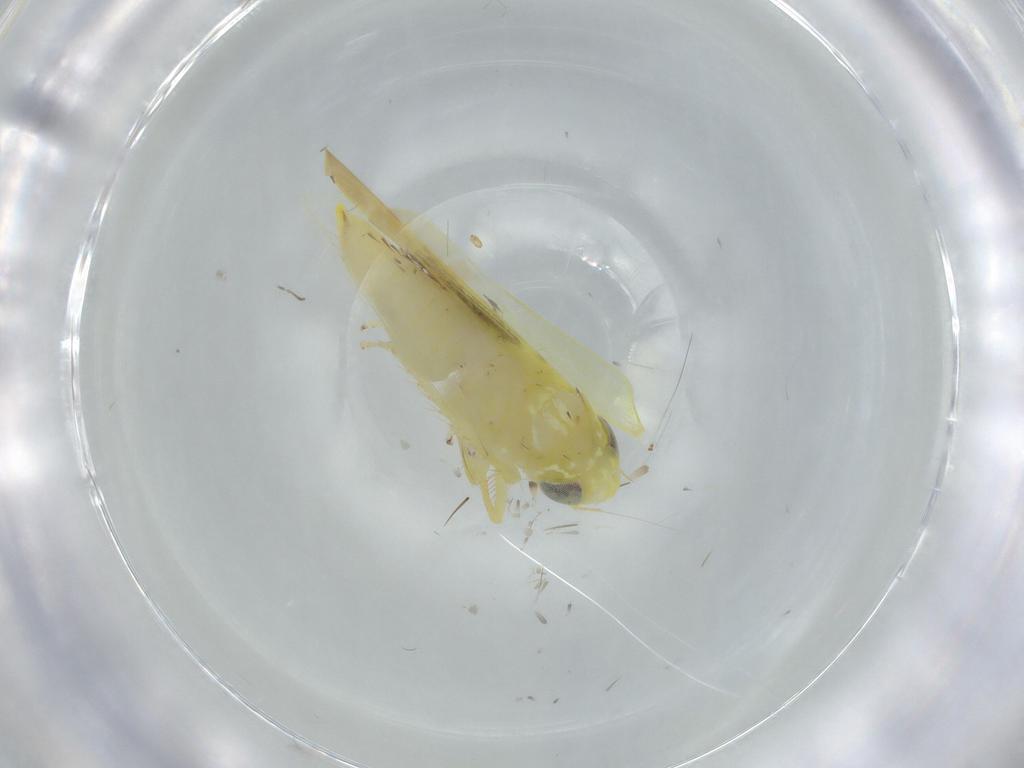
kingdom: Animalia
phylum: Arthropoda
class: Insecta
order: Hemiptera
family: Cicadellidae
